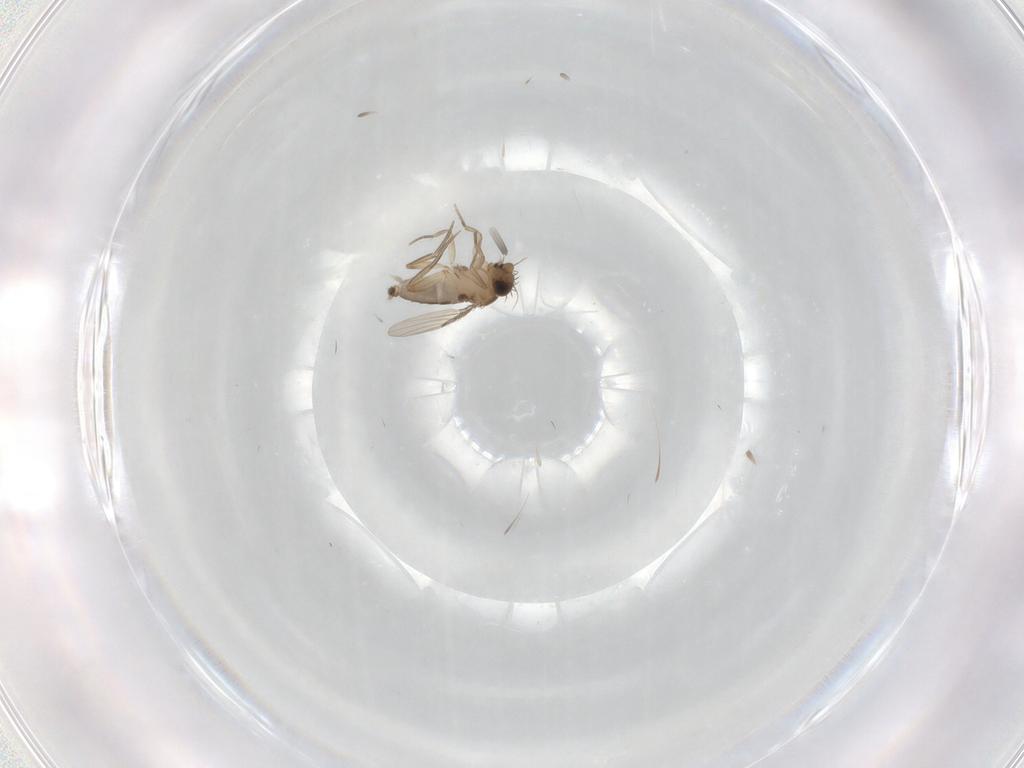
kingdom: Animalia
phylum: Arthropoda
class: Insecta
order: Diptera
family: Phoridae
